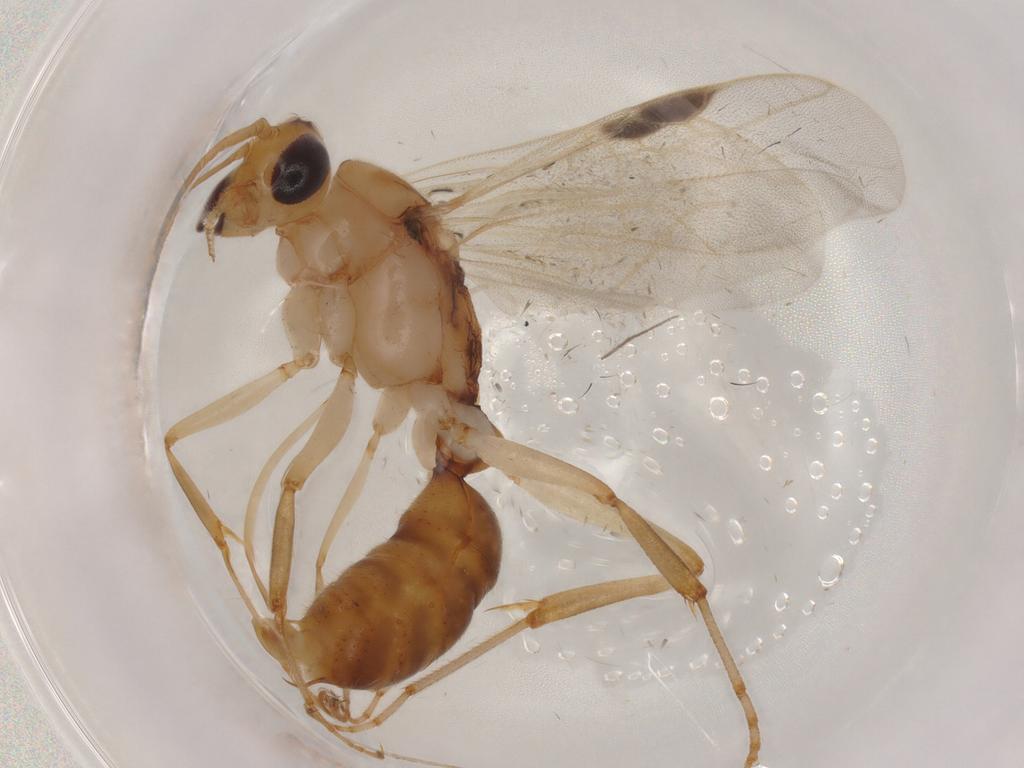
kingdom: Animalia
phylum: Arthropoda
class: Insecta
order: Hymenoptera
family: Formicidae
